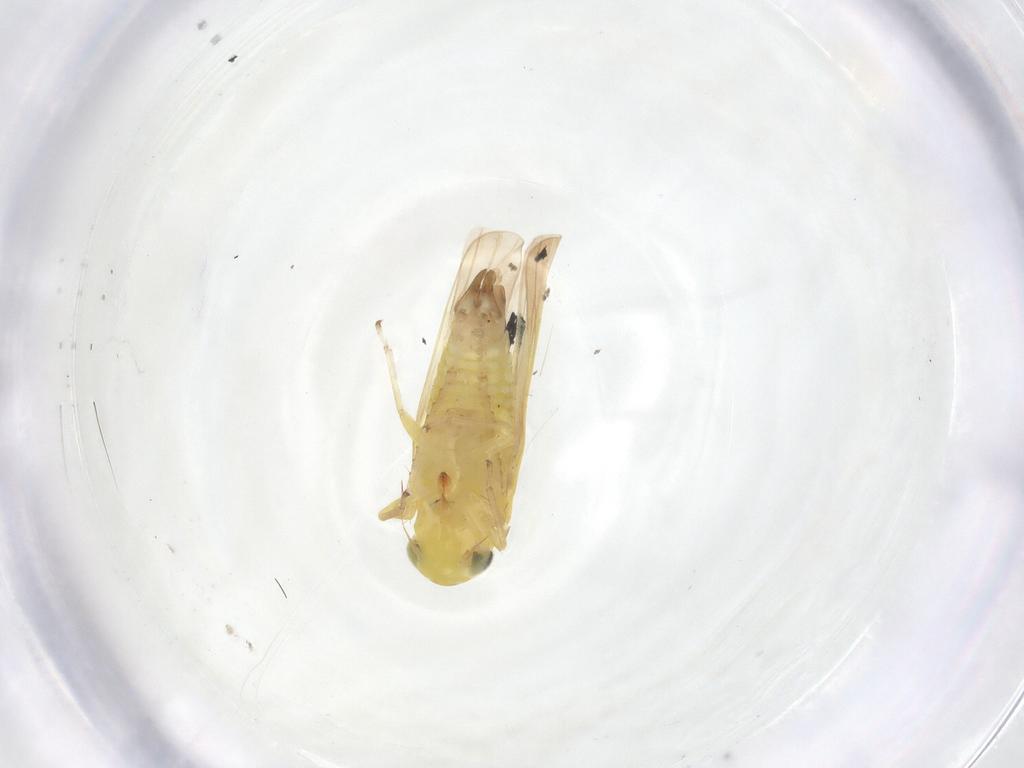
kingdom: Animalia
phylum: Arthropoda
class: Insecta
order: Hemiptera
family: Cicadellidae
